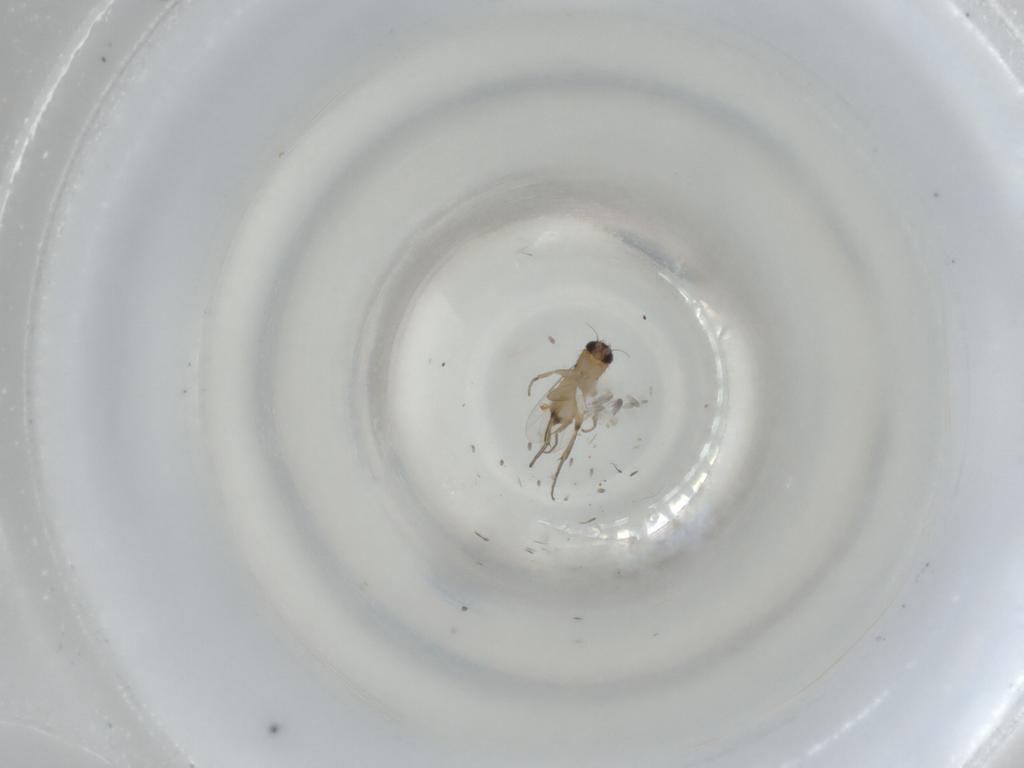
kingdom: Animalia
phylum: Arthropoda
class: Insecta
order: Diptera
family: Phoridae
